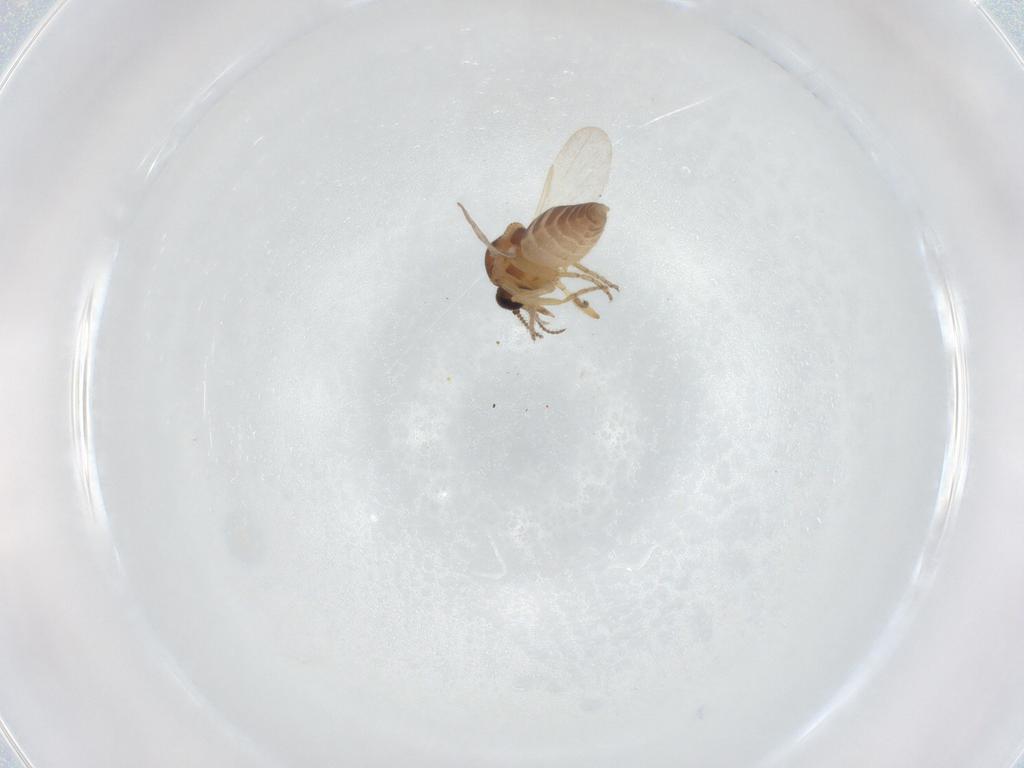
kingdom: Animalia
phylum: Arthropoda
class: Insecta
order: Diptera
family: Ceratopogonidae
